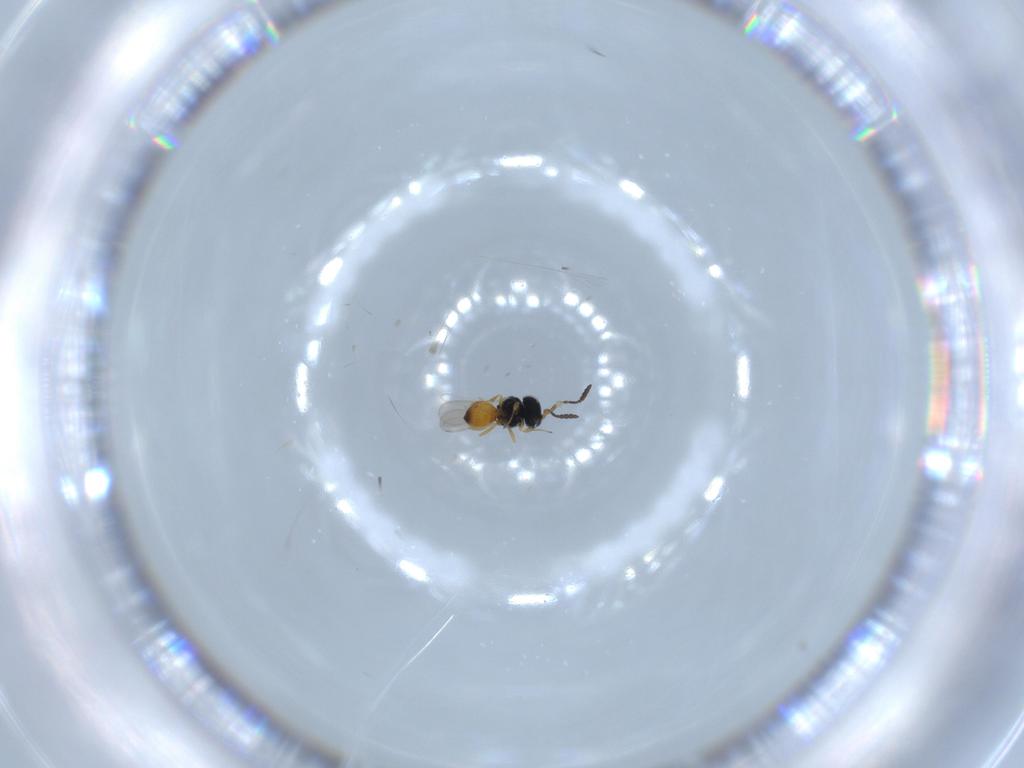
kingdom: Animalia
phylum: Arthropoda
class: Insecta
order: Hymenoptera
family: Scelionidae
